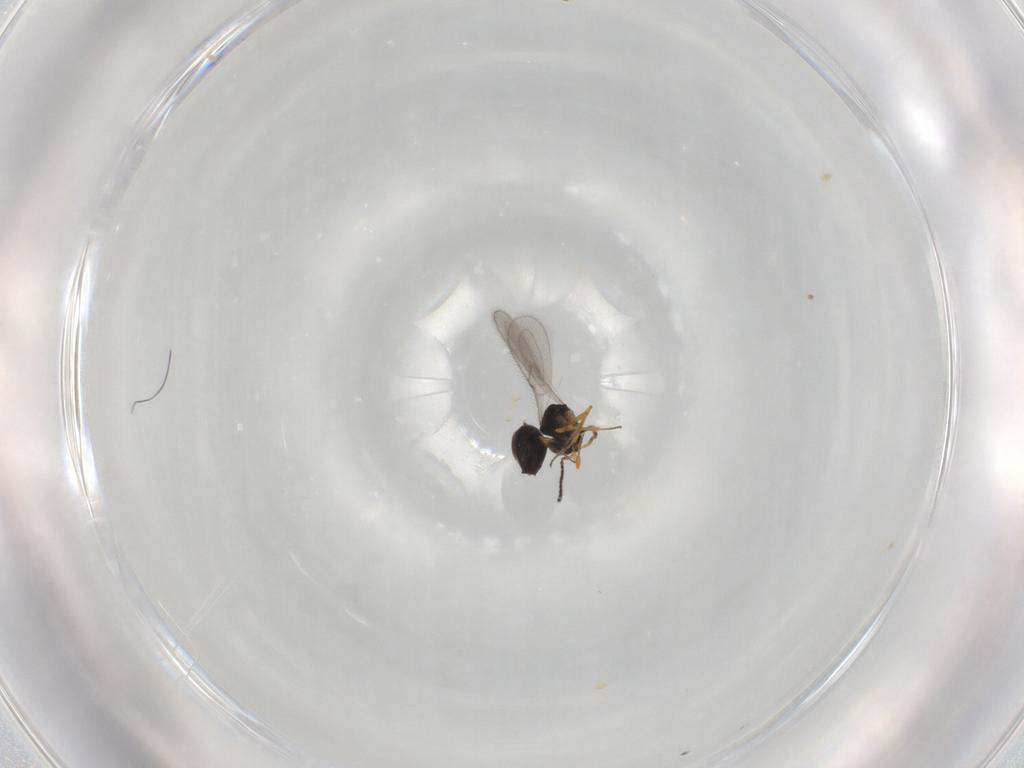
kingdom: Animalia
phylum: Arthropoda
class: Insecta
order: Hymenoptera
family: Scelionidae
